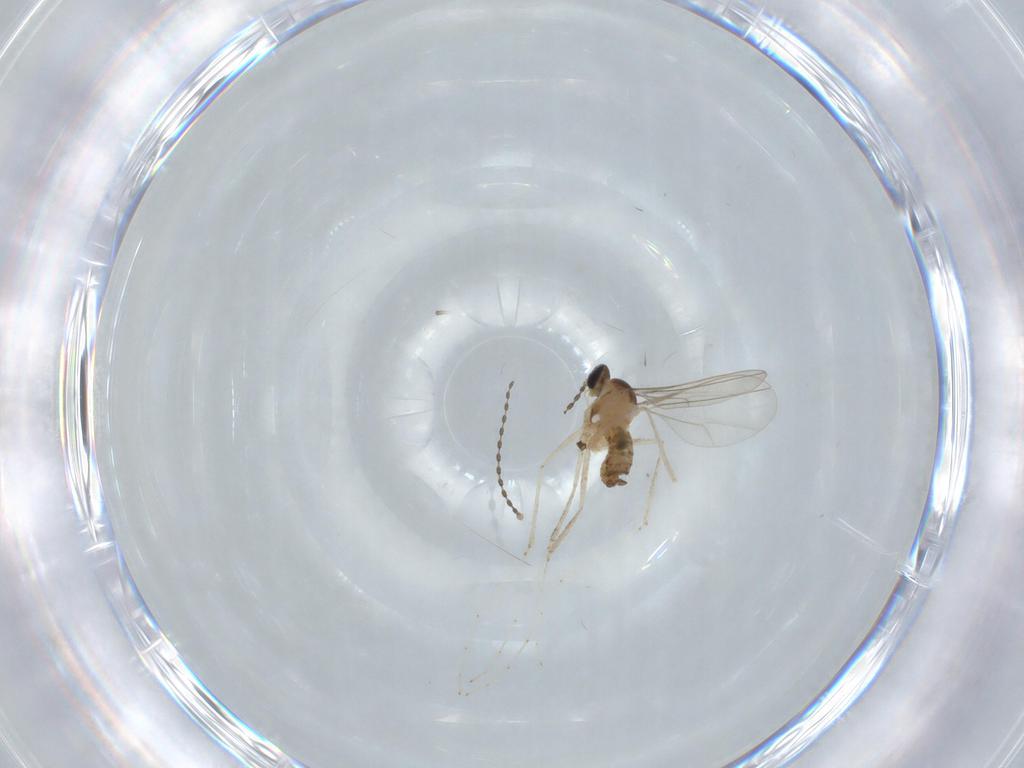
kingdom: Animalia
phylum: Arthropoda
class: Insecta
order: Diptera
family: Cecidomyiidae
